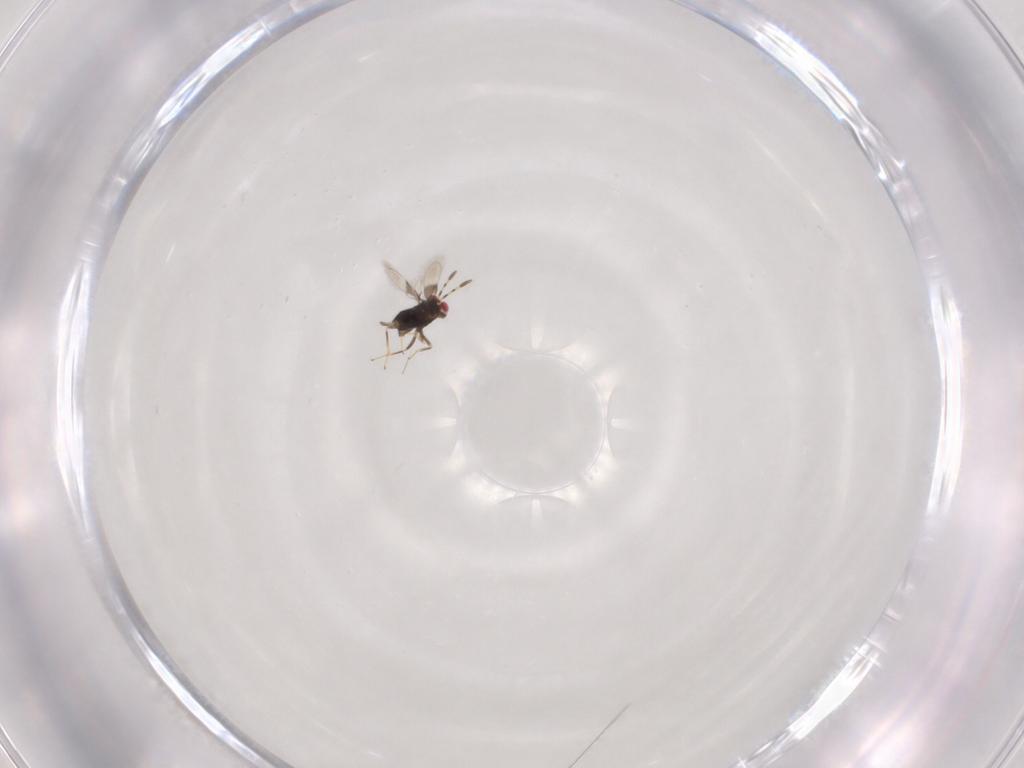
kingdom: Animalia
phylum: Arthropoda
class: Insecta
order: Hymenoptera
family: Azotidae
